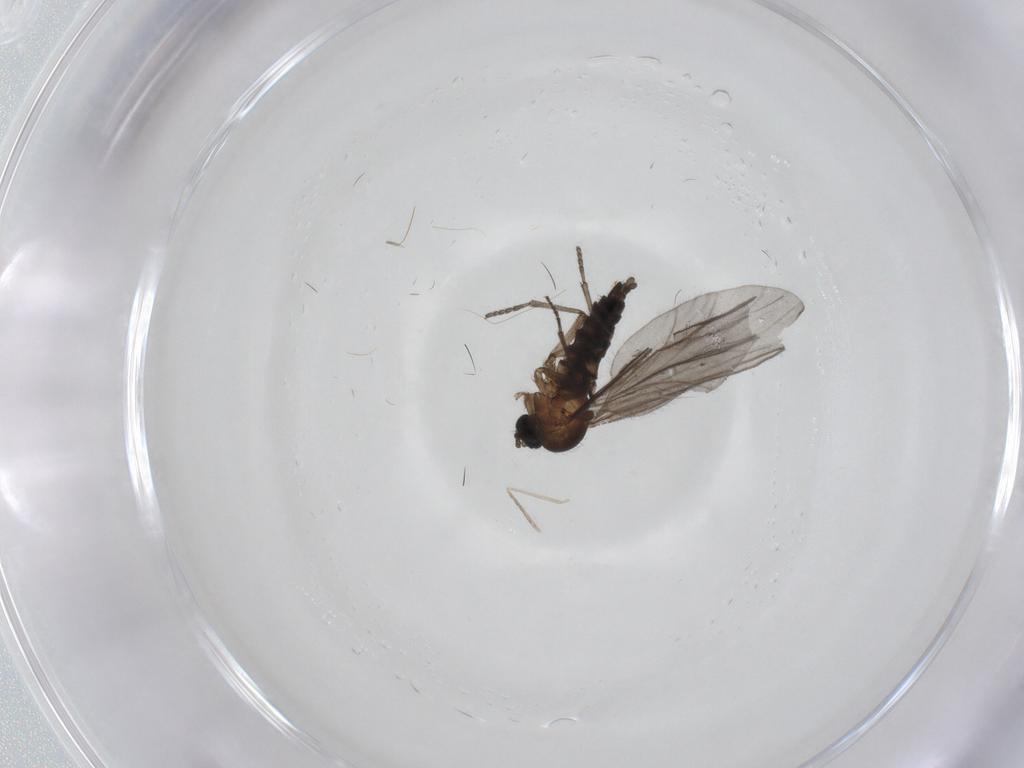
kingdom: Animalia
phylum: Arthropoda
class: Insecta
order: Diptera
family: Sciaridae
